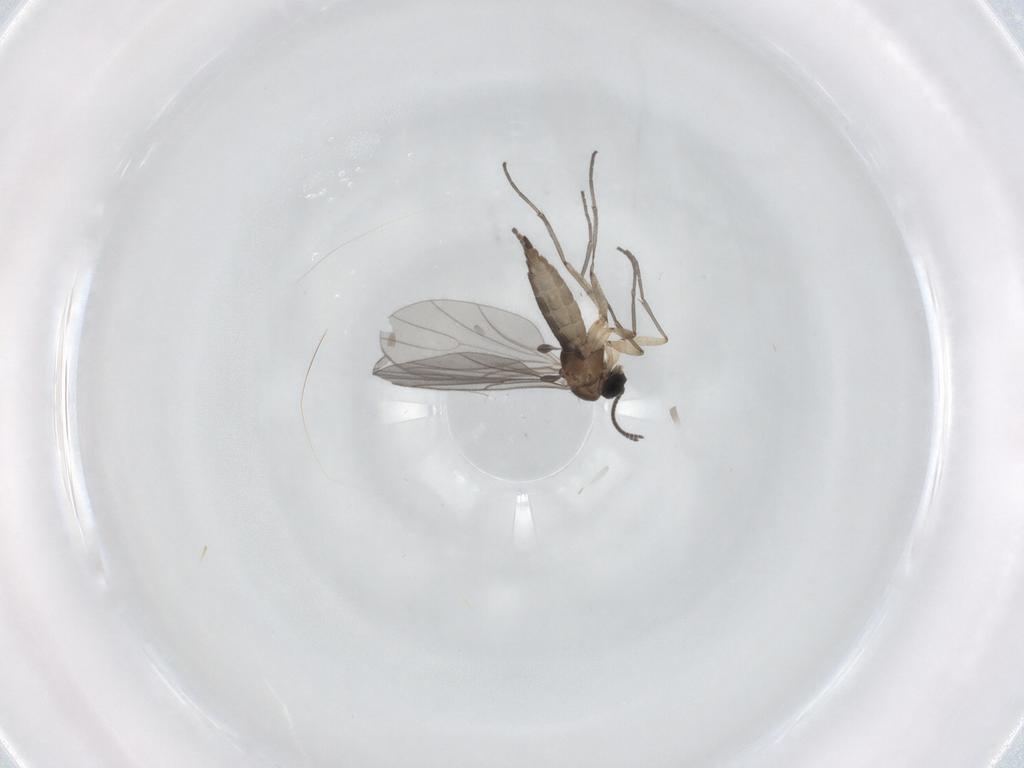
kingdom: Animalia
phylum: Arthropoda
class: Insecta
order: Diptera
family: Sciaridae
